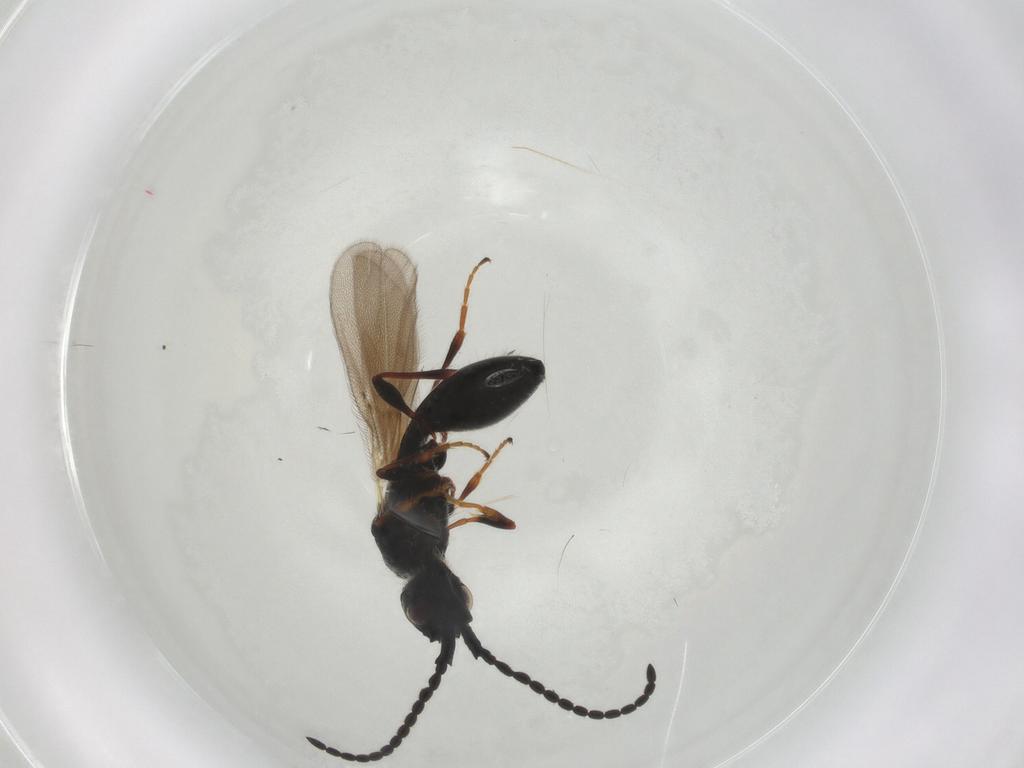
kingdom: Animalia
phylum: Arthropoda
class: Insecta
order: Hymenoptera
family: Diapriidae
